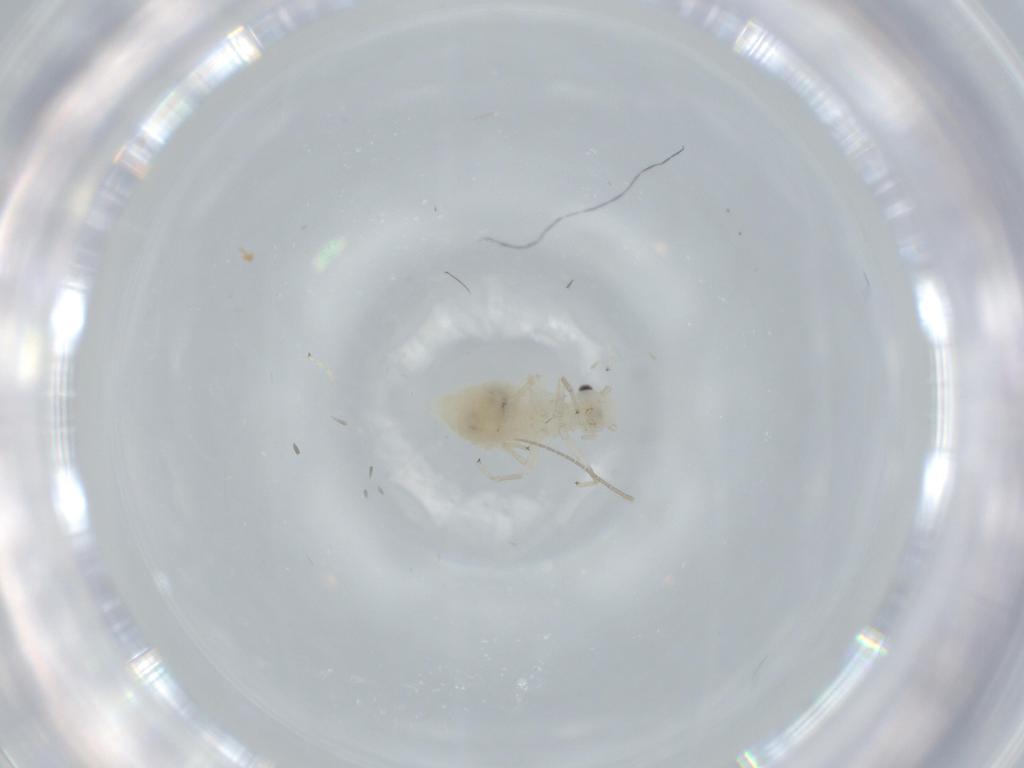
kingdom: Animalia
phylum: Arthropoda
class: Insecta
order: Psocodea
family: Caeciliusidae
